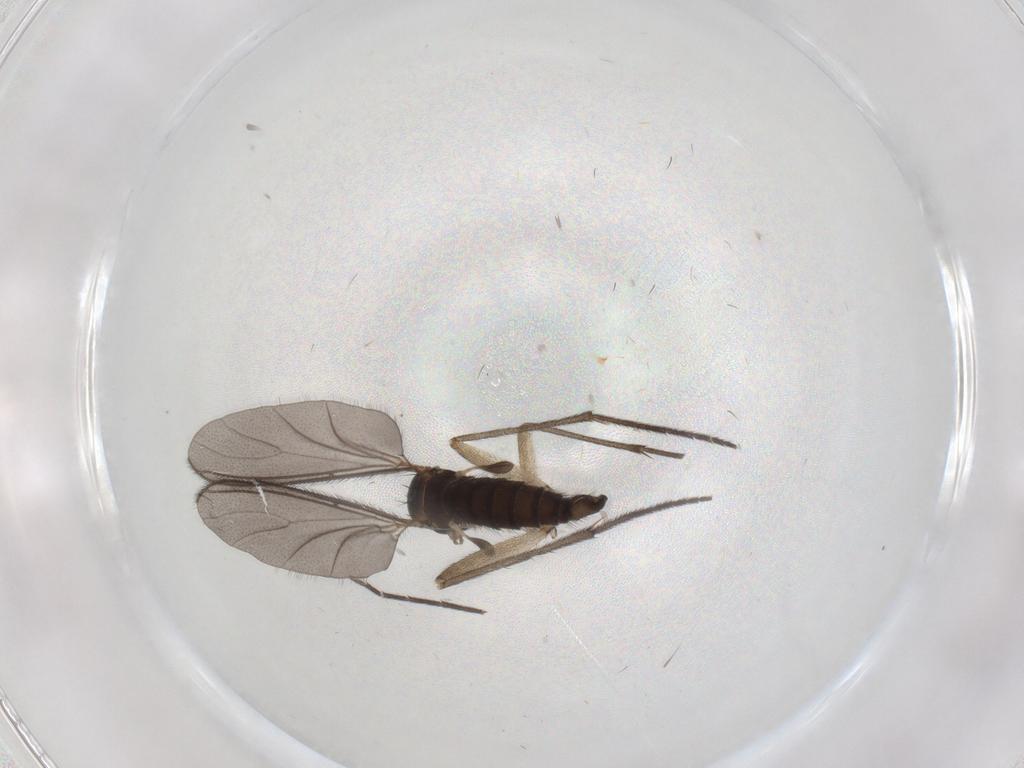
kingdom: Animalia
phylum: Arthropoda
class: Insecta
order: Diptera
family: Sciaridae
